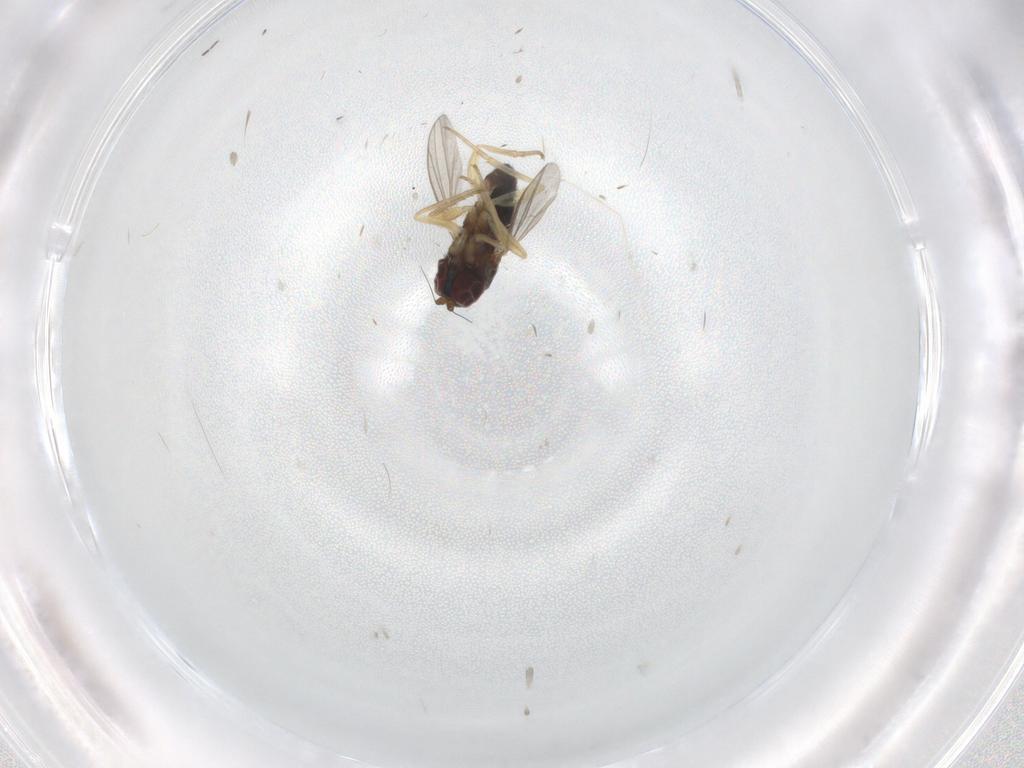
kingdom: Animalia
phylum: Arthropoda
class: Insecta
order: Diptera
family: Dolichopodidae
